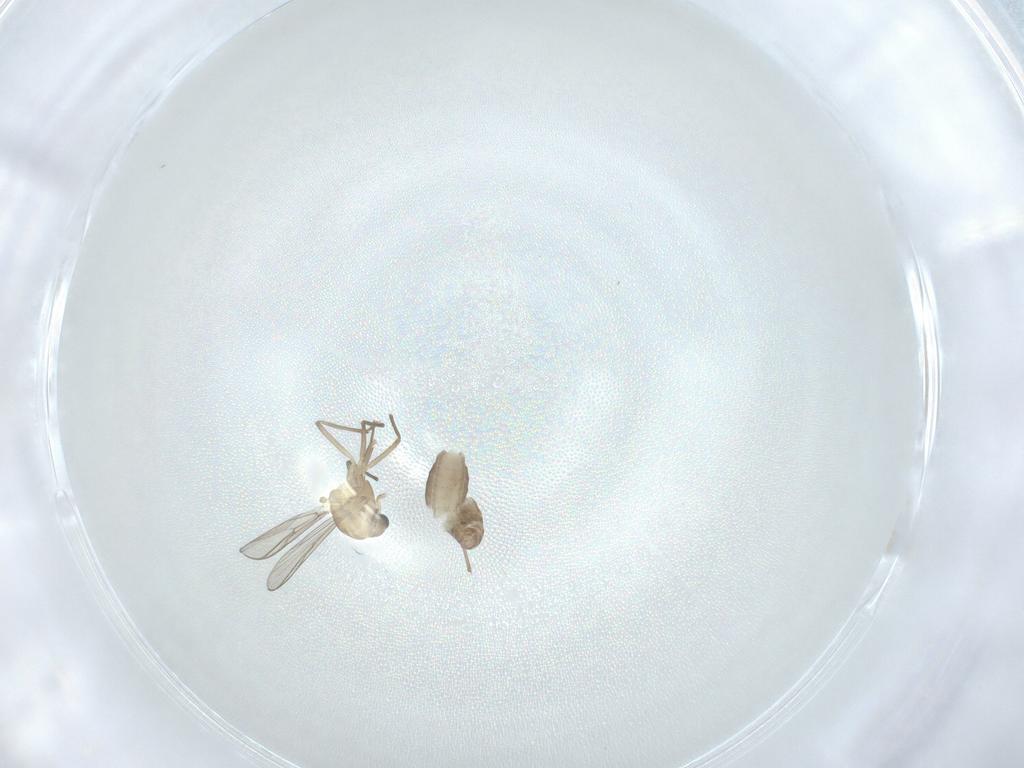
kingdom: Animalia
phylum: Arthropoda
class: Insecta
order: Diptera
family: Chironomidae
